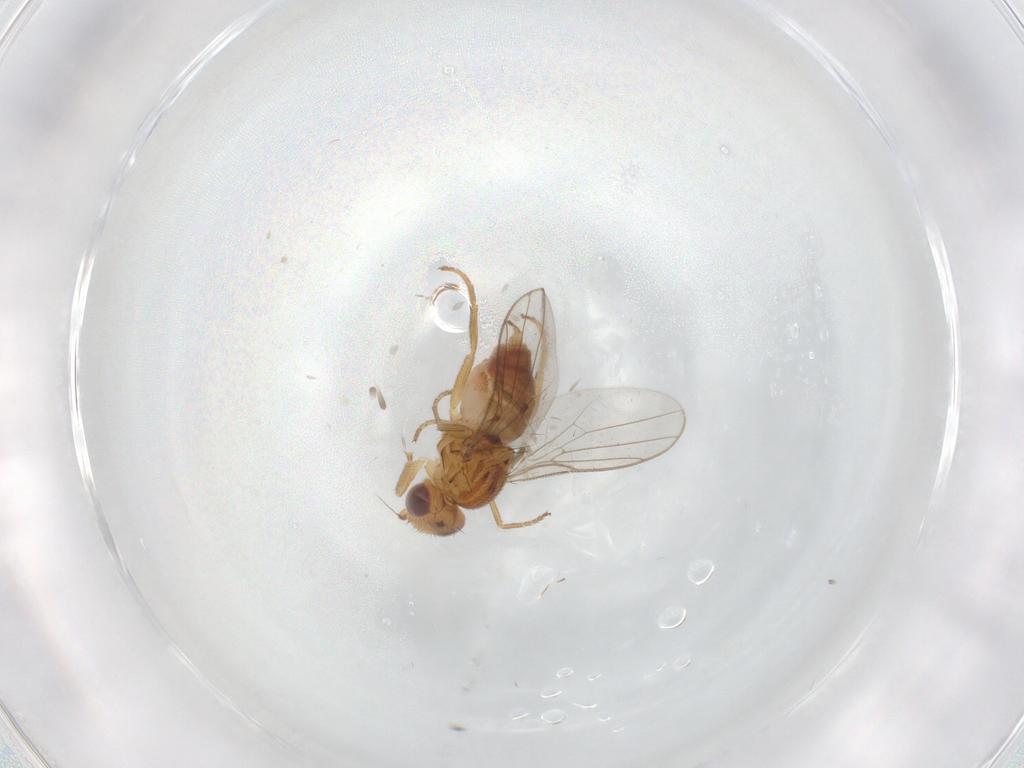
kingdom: Animalia
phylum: Arthropoda
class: Insecta
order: Diptera
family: Chloropidae
